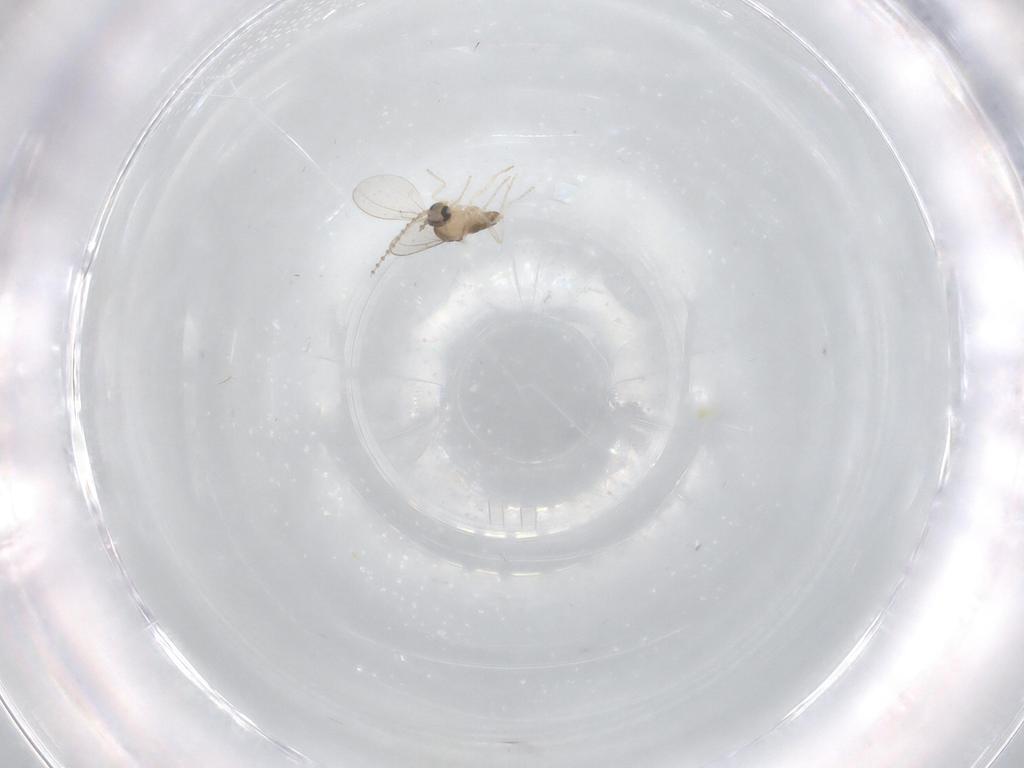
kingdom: Animalia
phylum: Arthropoda
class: Insecta
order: Diptera
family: Cecidomyiidae
